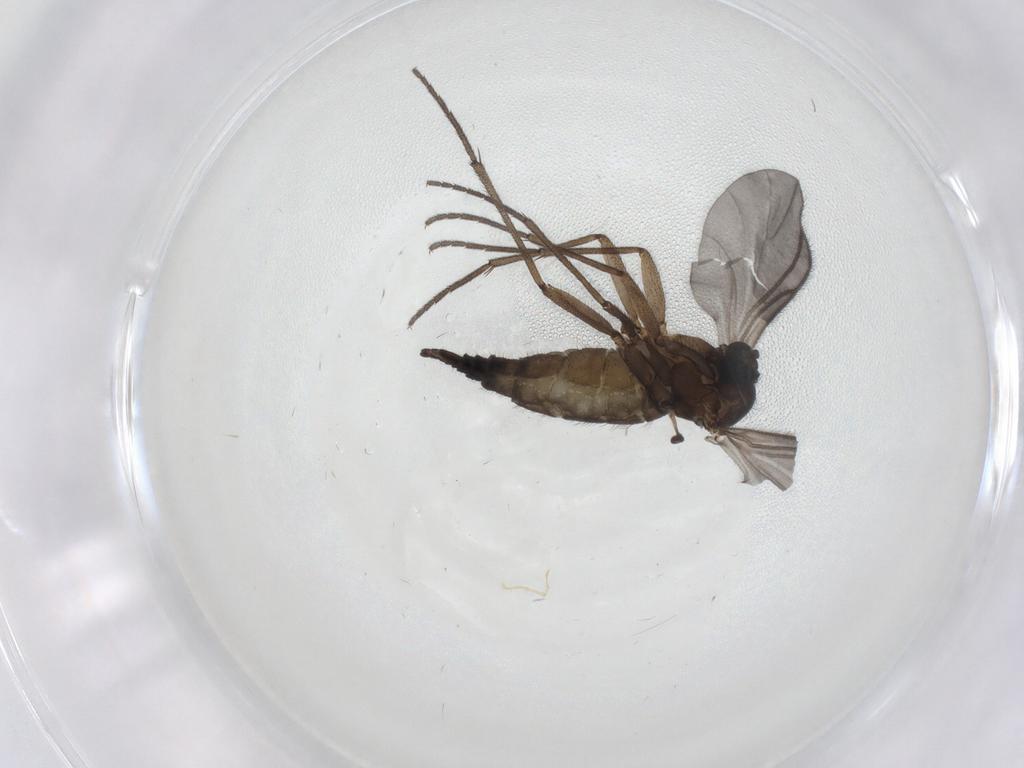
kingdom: Animalia
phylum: Arthropoda
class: Insecta
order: Diptera
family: Sciaridae
